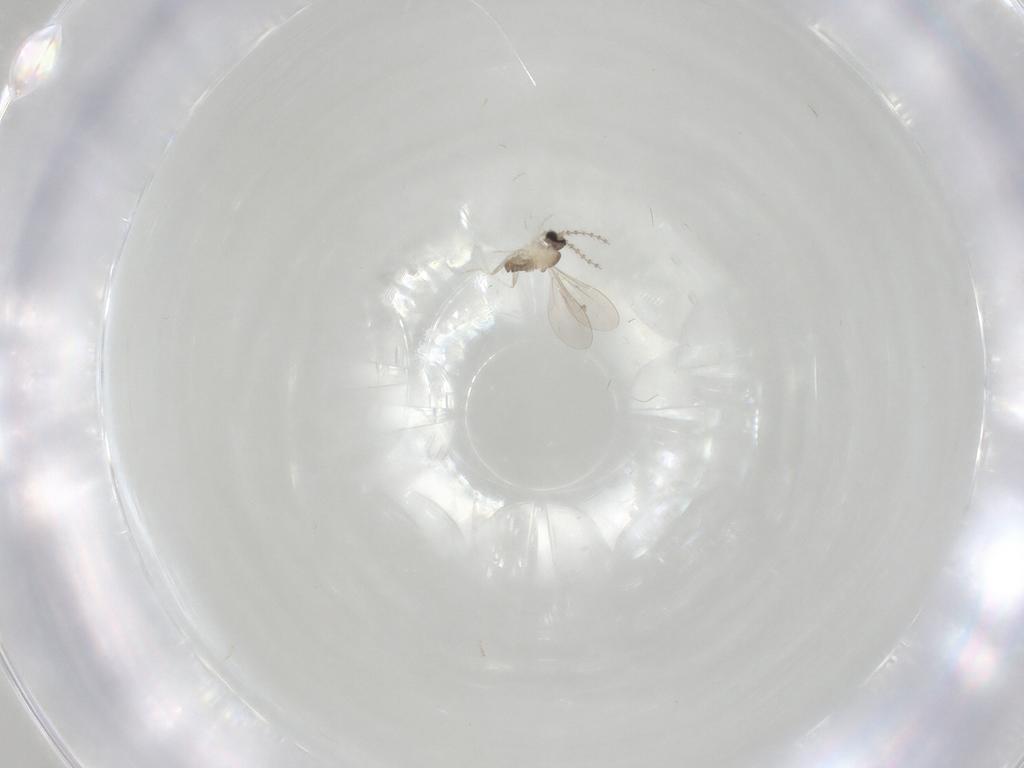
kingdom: Animalia
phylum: Arthropoda
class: Insecta
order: Diptera
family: Cecidomyiidae
